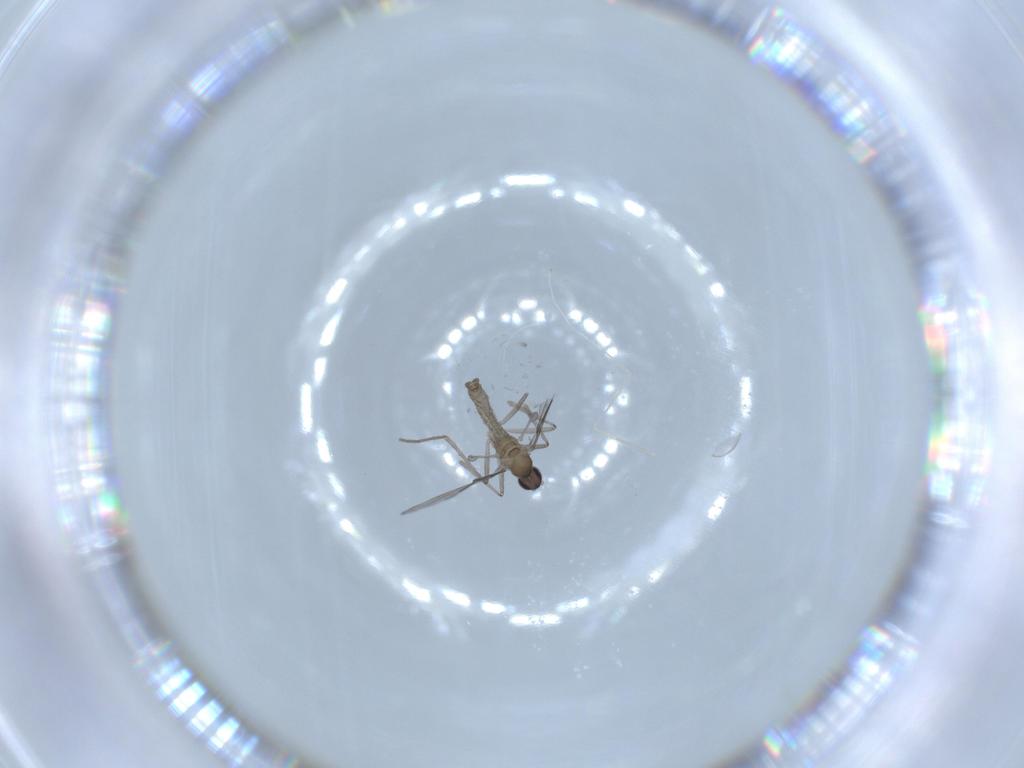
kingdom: Animalia
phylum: Arthropoda
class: Insecta
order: Diptera
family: Cecidomyiidae
